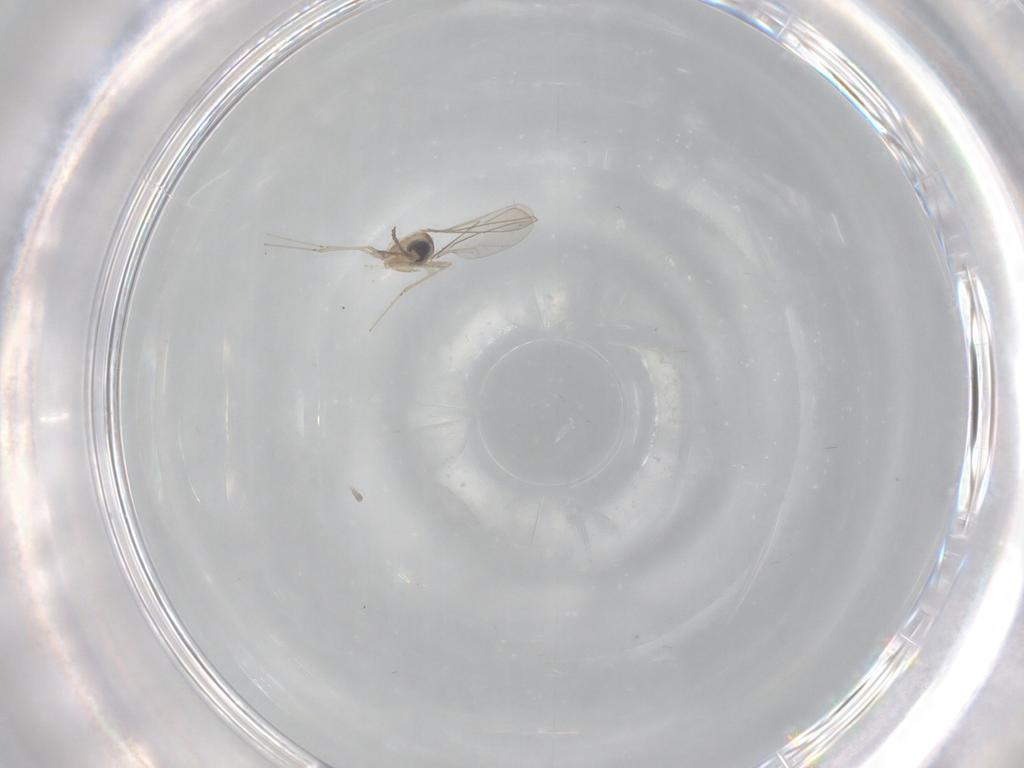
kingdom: Animalia
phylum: Arthropoda
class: Insecta
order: Diptera
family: Cecidomyiidae
